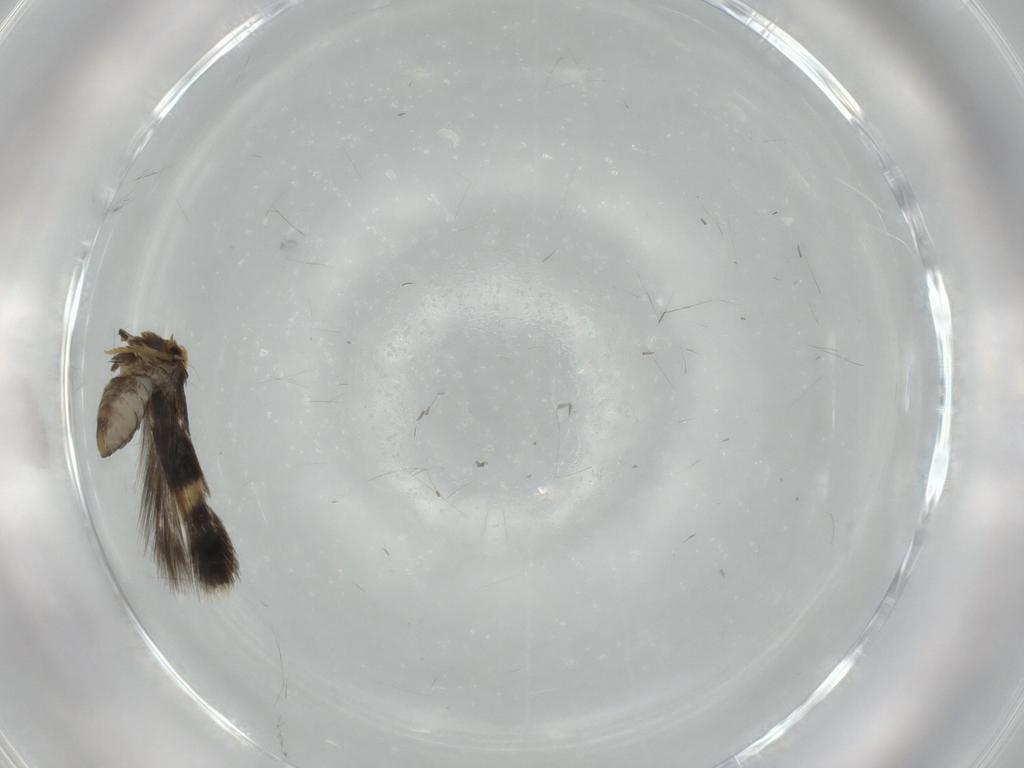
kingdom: Animalia
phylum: Arthropoda
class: Insecta
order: Lepidoptera
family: Nepticulidae
